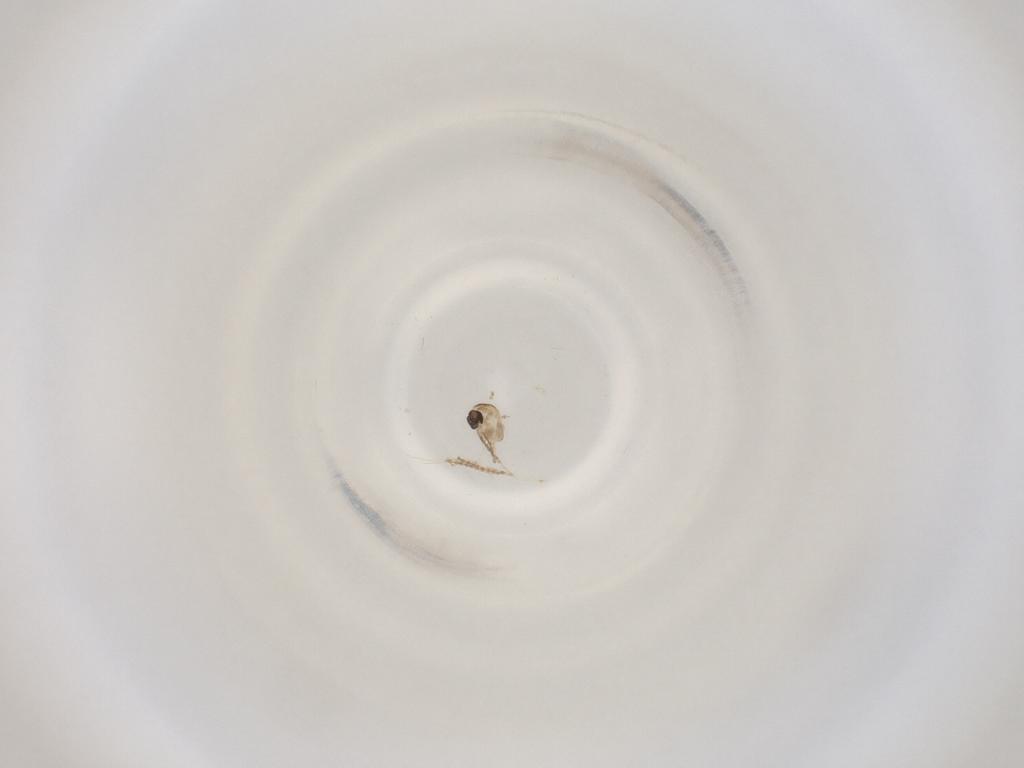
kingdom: Animalia
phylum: Arthropoda
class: Insecta
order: Diptera
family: Cecidomyiidae
